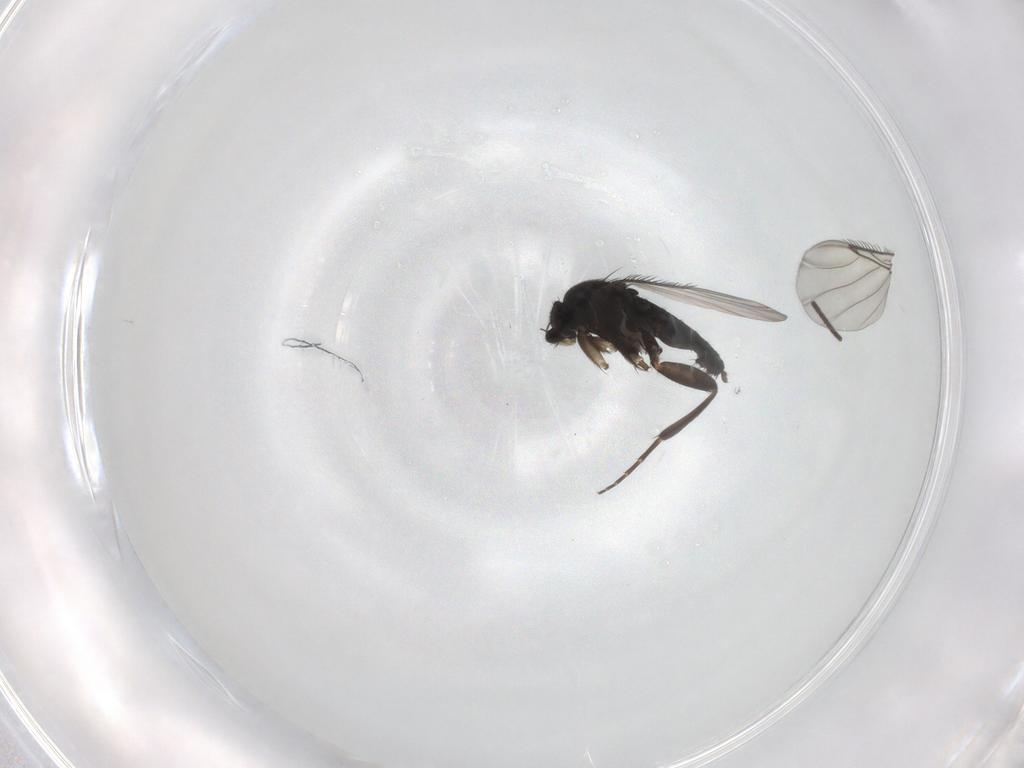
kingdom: Animalia
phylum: Arthropoda
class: Insecta
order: Diptera
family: Phoridae
